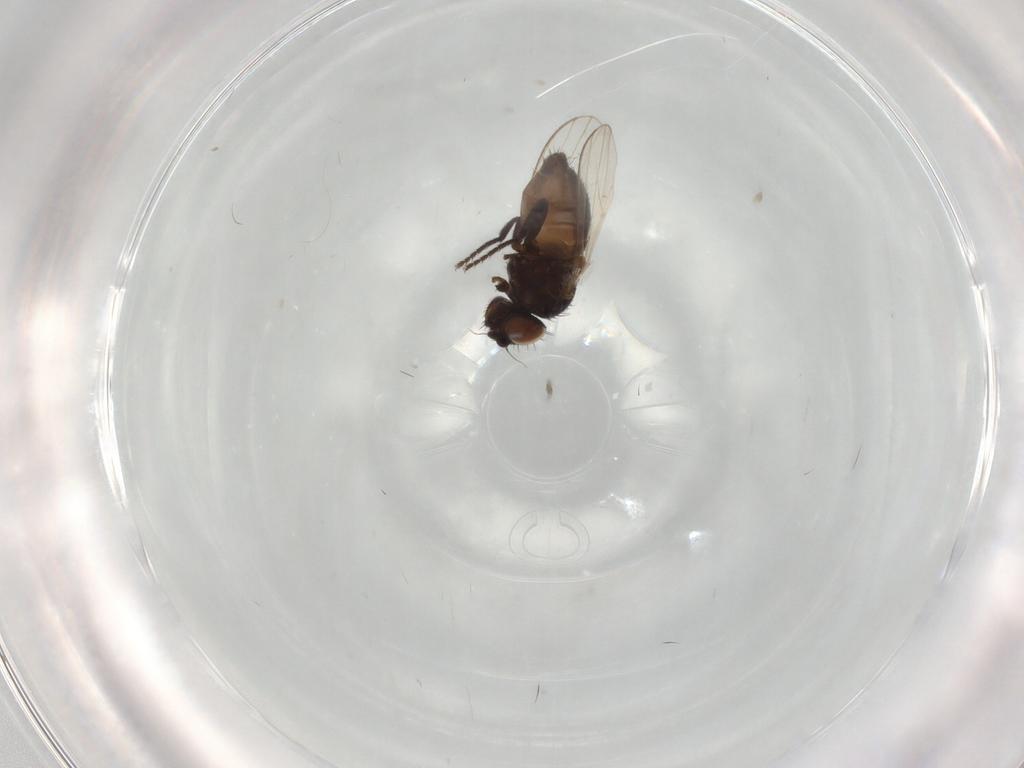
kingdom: Animalia
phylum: Arthropoda
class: Insecta
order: Diptera
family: Milichiidae
